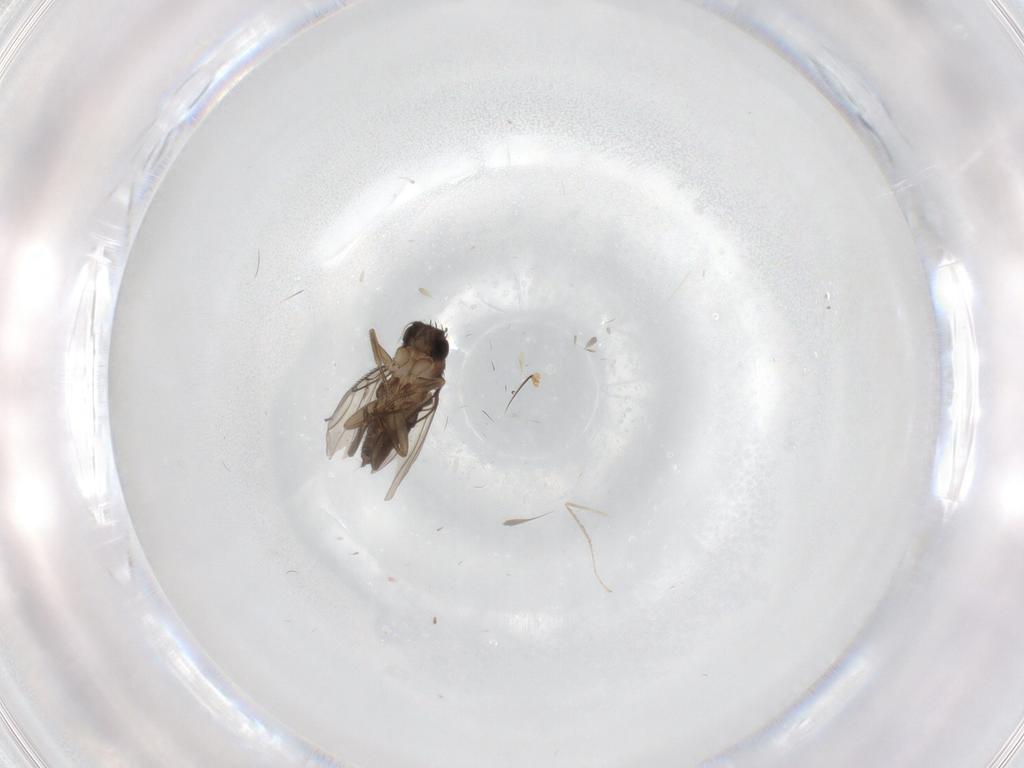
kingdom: Animalia
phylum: Arthropoda
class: Insecta
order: Diptera
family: Phoridae
